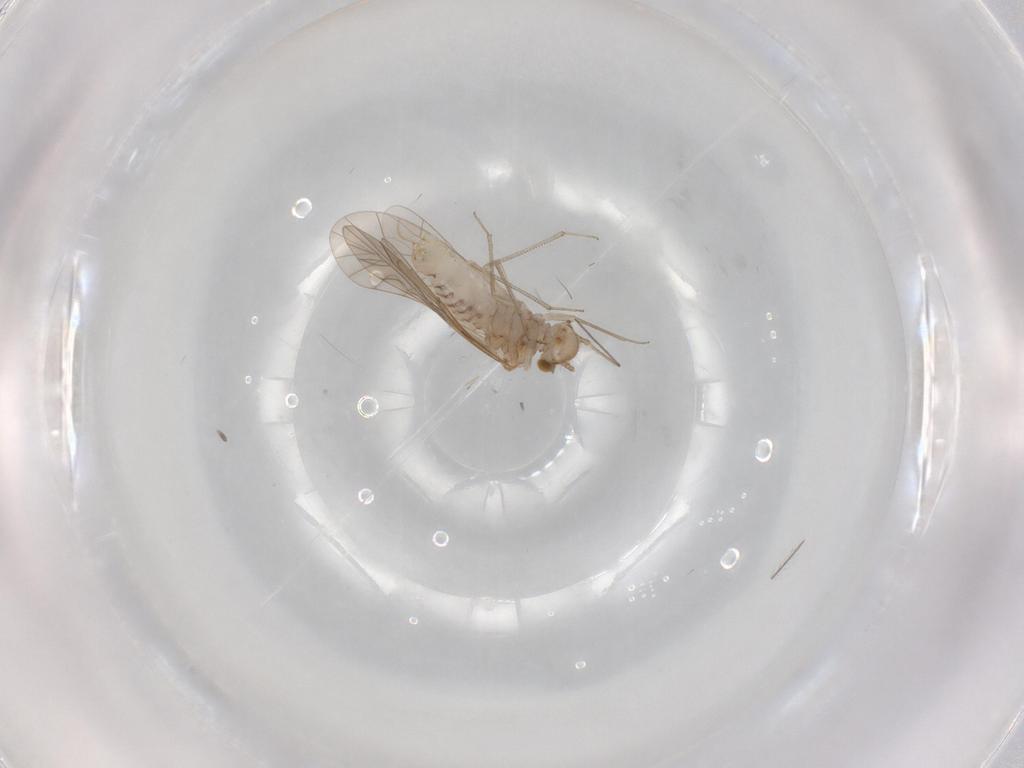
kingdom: Animalia
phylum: Arthropoda
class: Insecta
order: Psocodea
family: Lachesillidae
